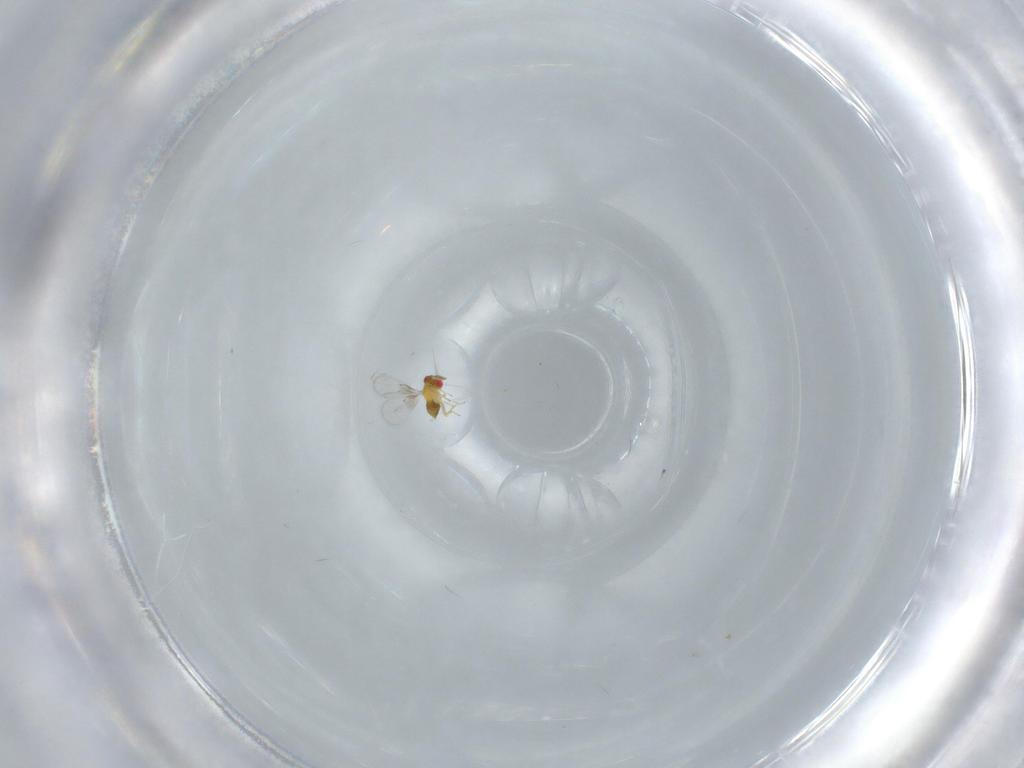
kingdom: Animalia
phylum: Arthropoda
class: Insecta
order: Hymenoptera
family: Trichogrammatidae
